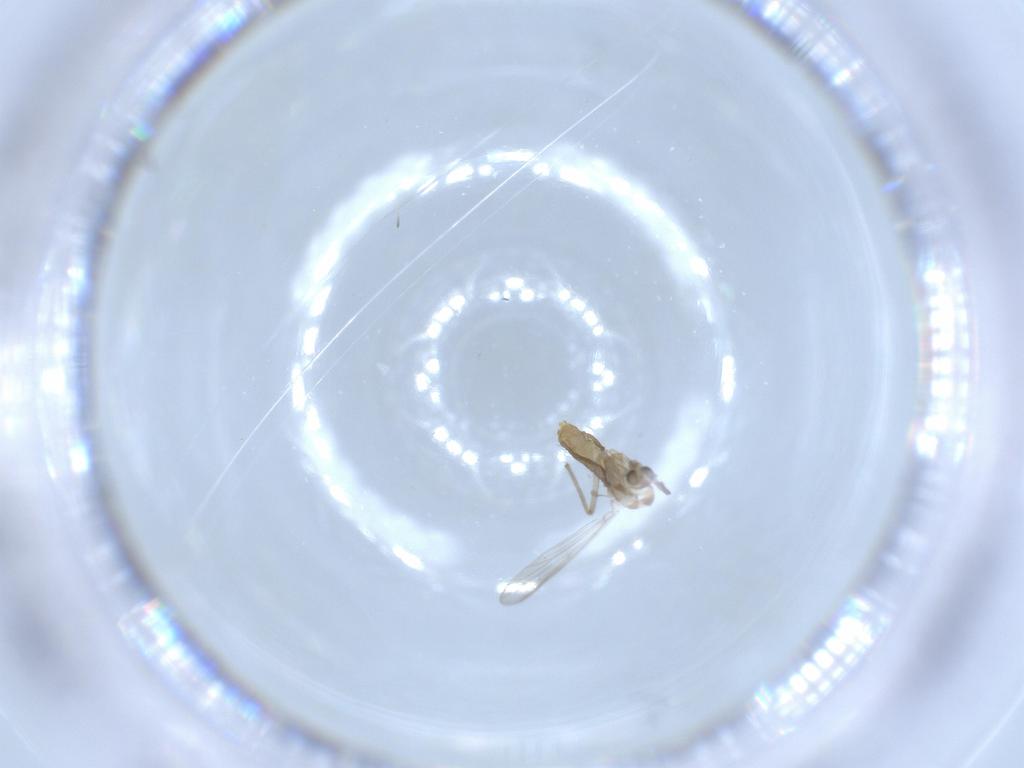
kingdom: Animalia
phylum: Arthropoda
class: Insecta
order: Diptera
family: Chironomidae
